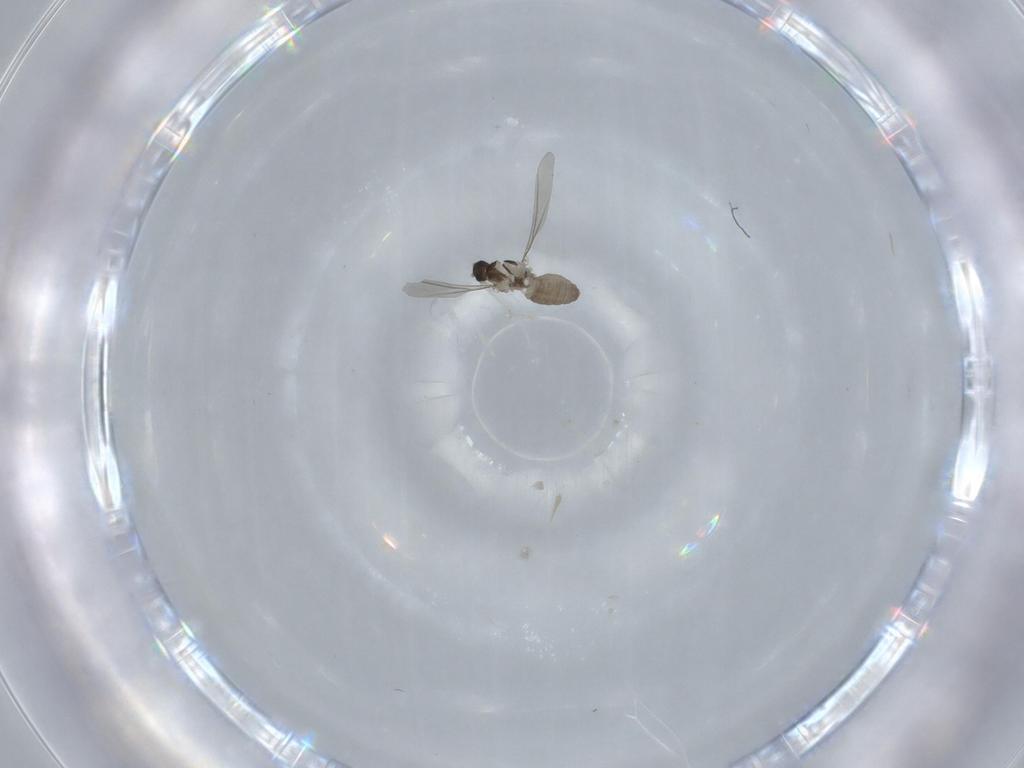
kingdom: Animalia
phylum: Arthropoda
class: Insecta
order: Diptera
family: Cecidomyiidae
